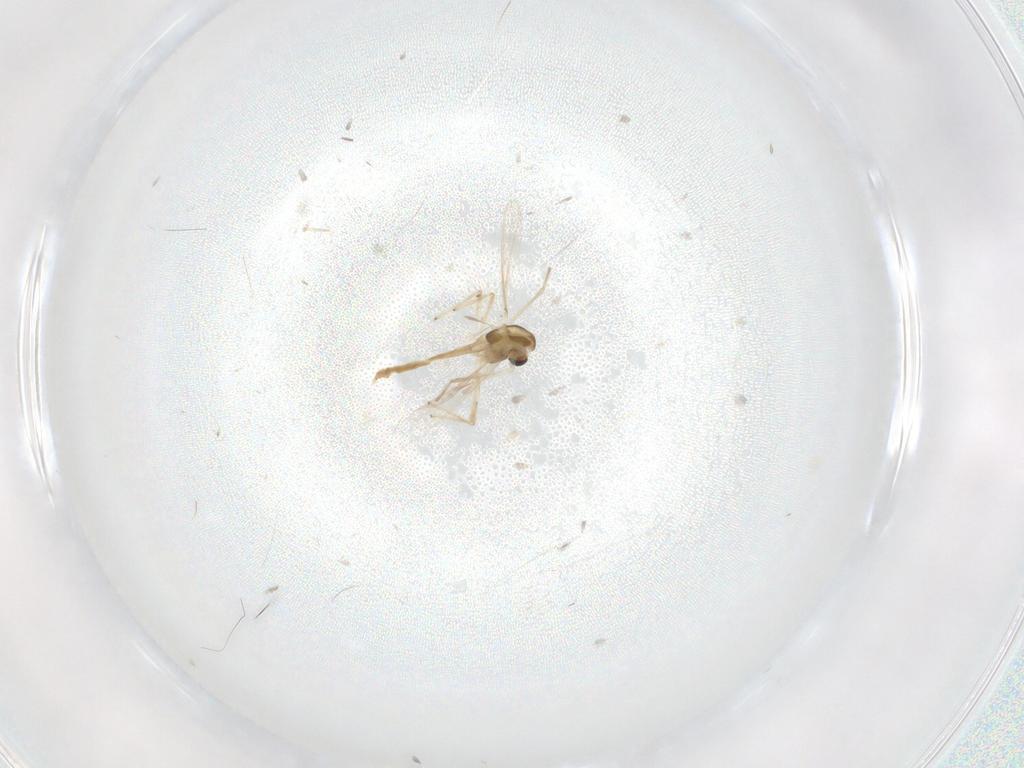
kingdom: Animalia
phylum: Arthropoda
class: Insecta
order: Diptera
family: Chironomidae
